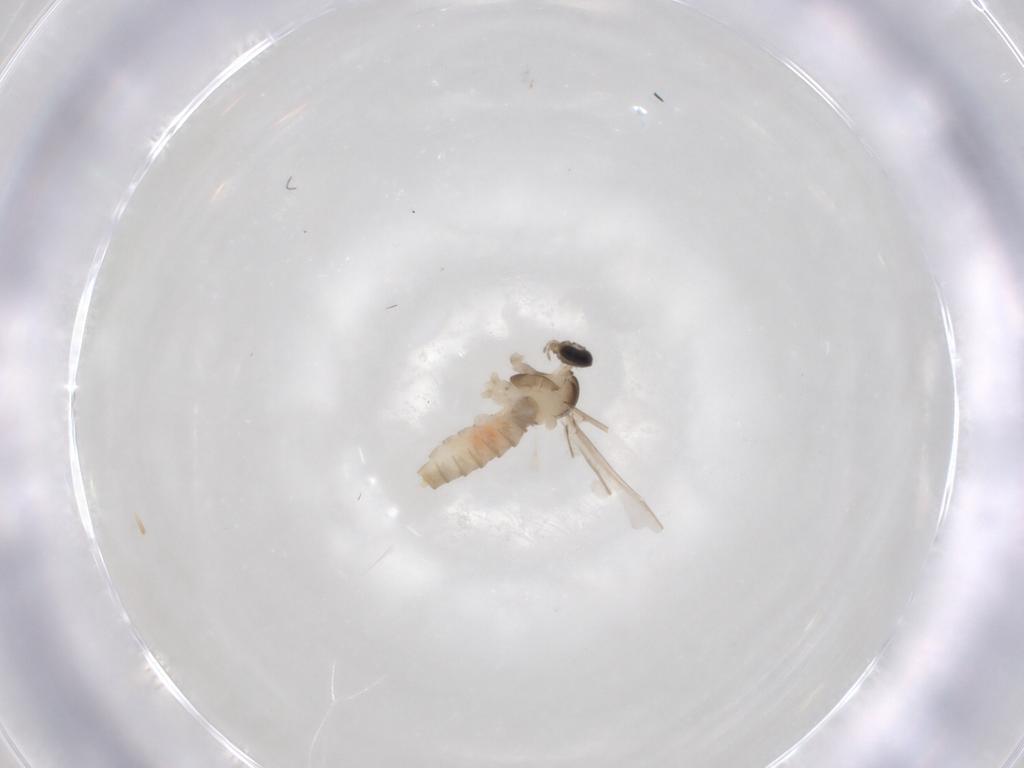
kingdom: Animalia
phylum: Arthropoda
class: Insecta
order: Diptera
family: Cecidomyiidae
